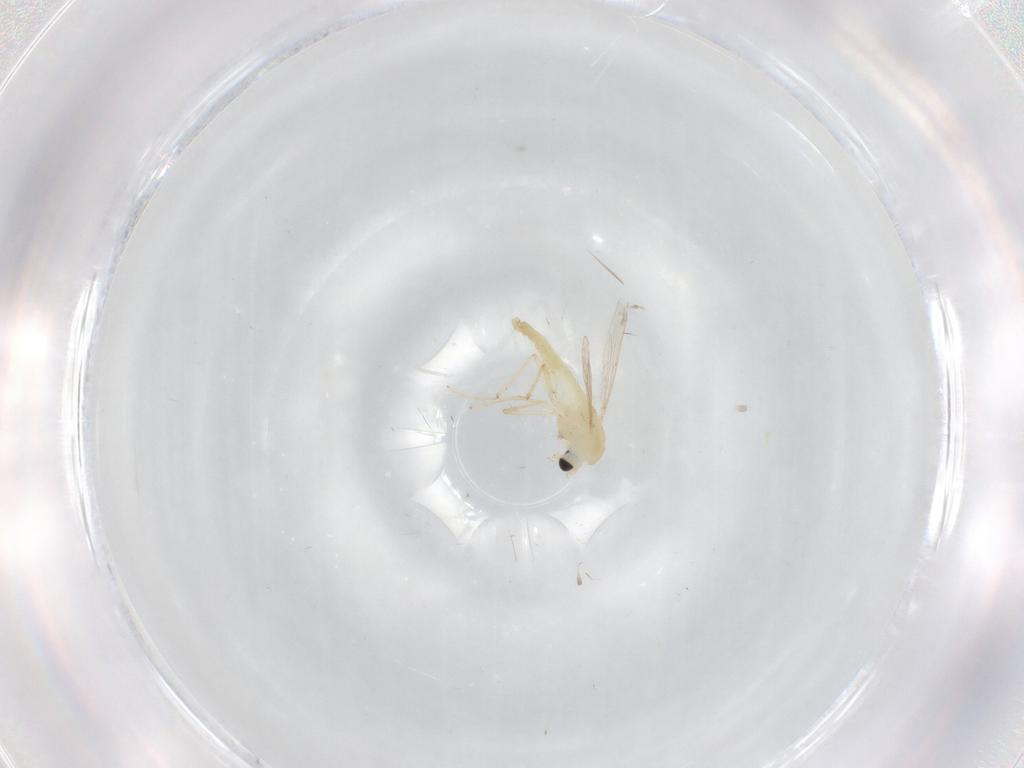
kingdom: Animalia
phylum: Arthropoda
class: Insecta
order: Diptera
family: Chironomidae
